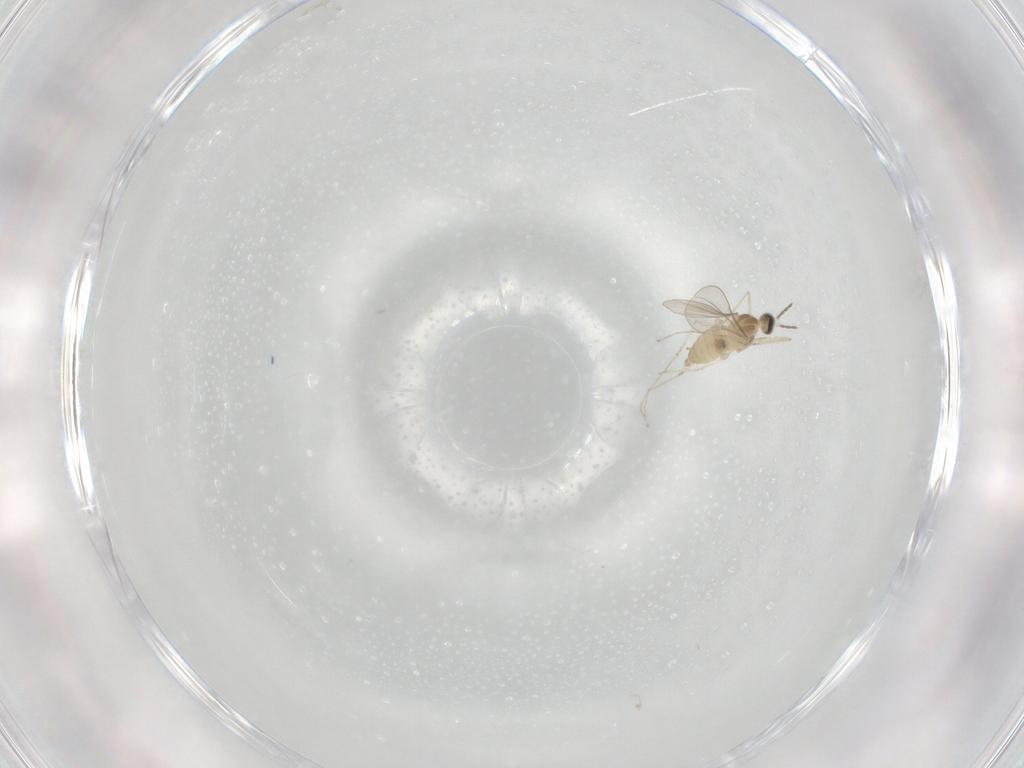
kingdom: Animalia
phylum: Arthropoda
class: Insecta
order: Diptera
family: Cecidomyiidae
